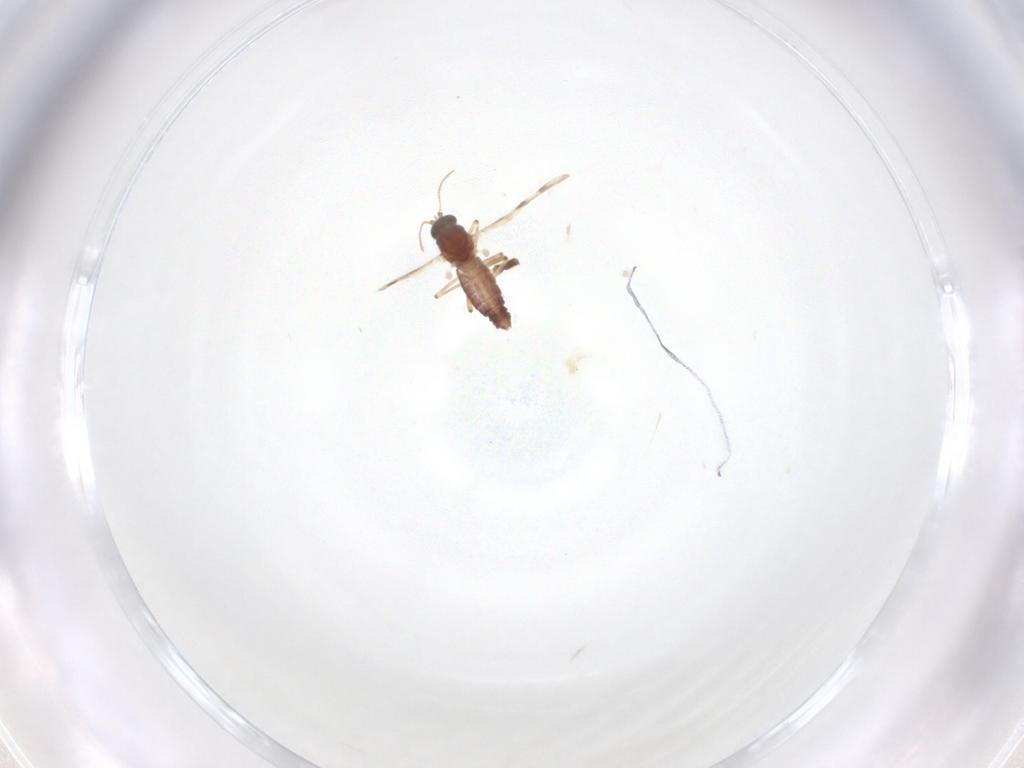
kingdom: Animalia
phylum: Arthropoda
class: Insecta
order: Diptera
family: Cecidomyiidae
